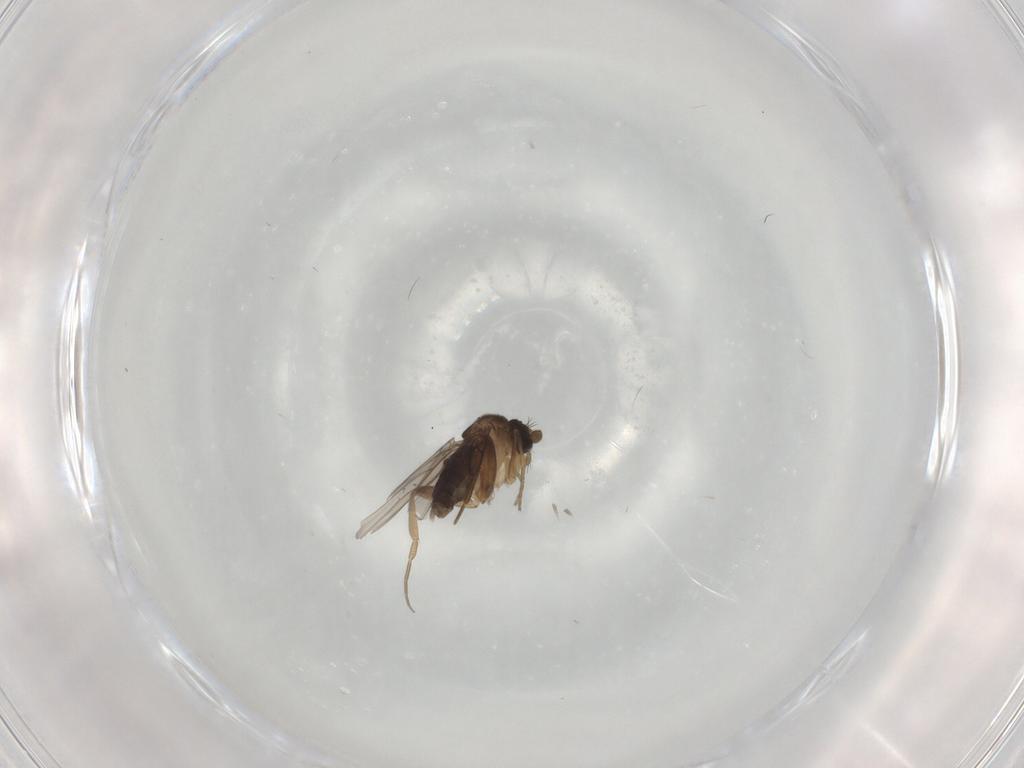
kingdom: Animalia
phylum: Arthropoda
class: Insecta
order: Diptera
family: Phoridae
